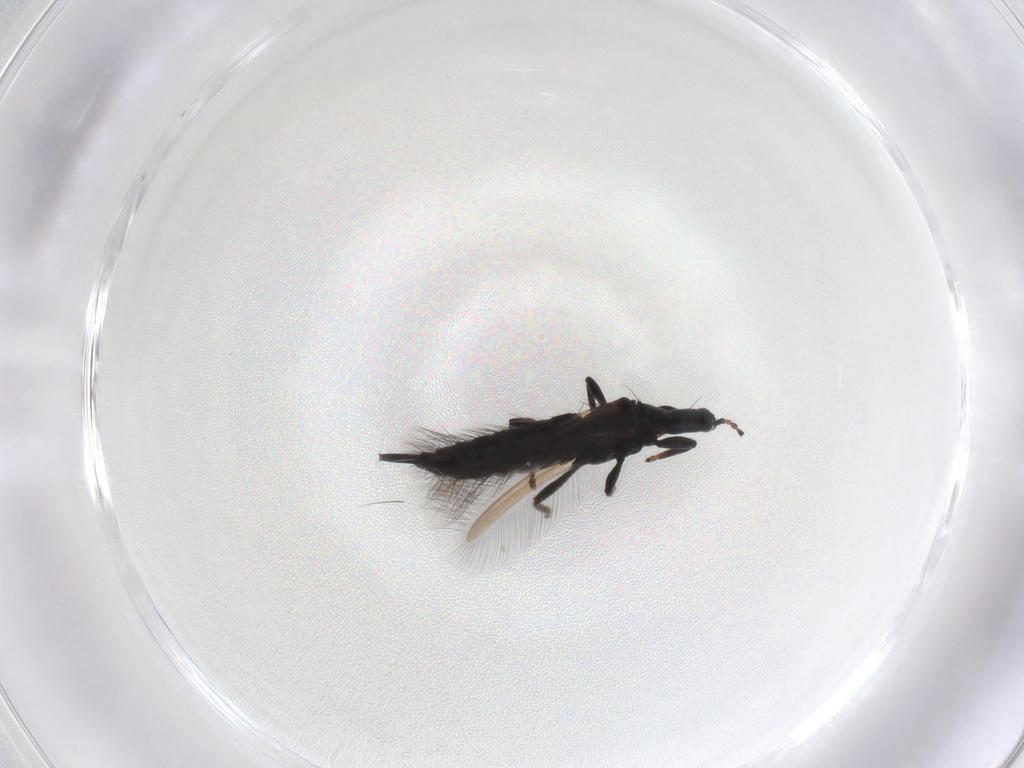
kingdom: Animalia
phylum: Arthropoda
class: Insecta
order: Thysanoptera
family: Phlaeothripidae
